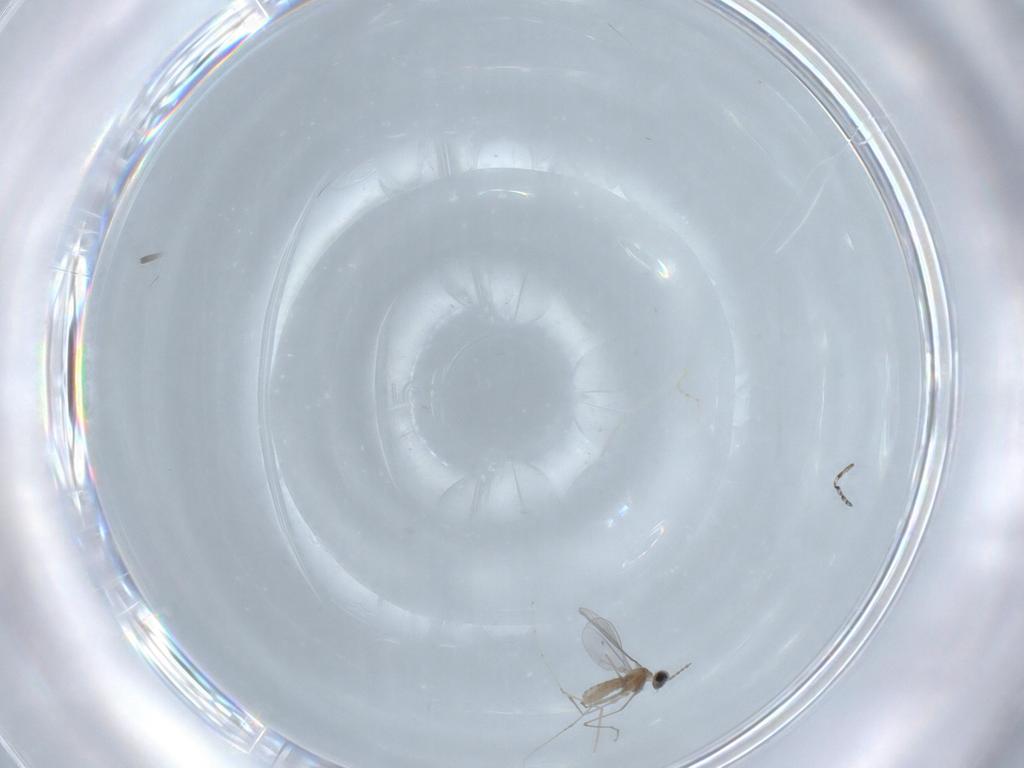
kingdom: Animalia
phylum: Arthropoda
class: Insecta
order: Diptera
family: Cecidomyiidae
